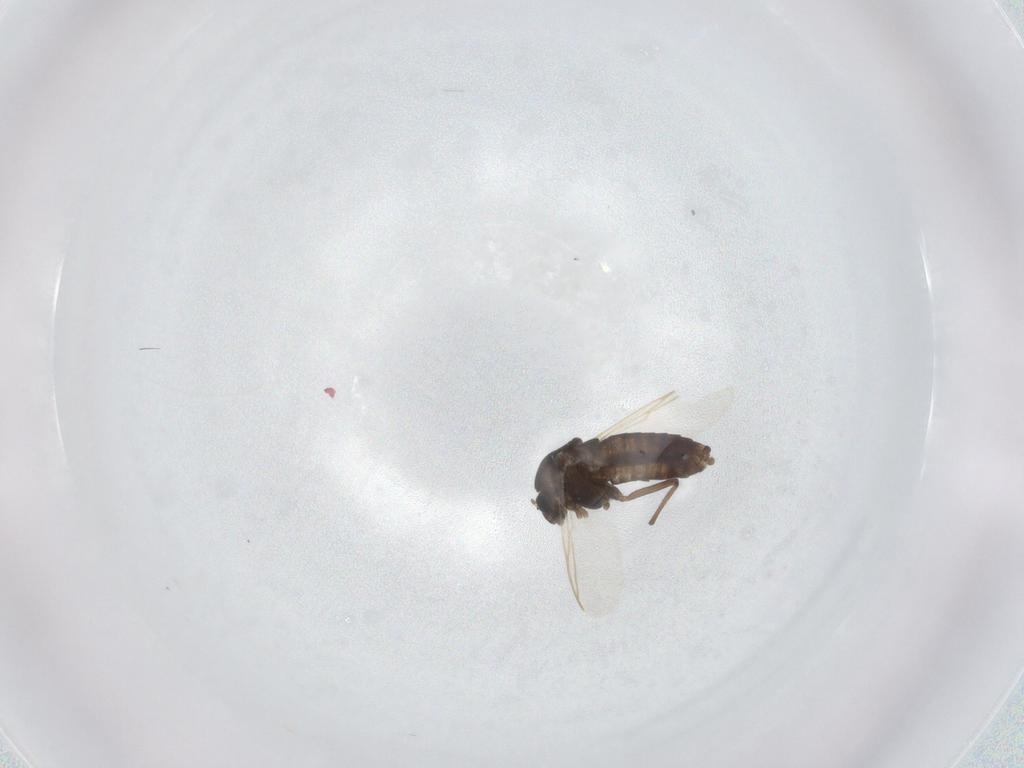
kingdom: Animalia
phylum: Arthropoda
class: Insecta
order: Diptera
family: Chironomidae
